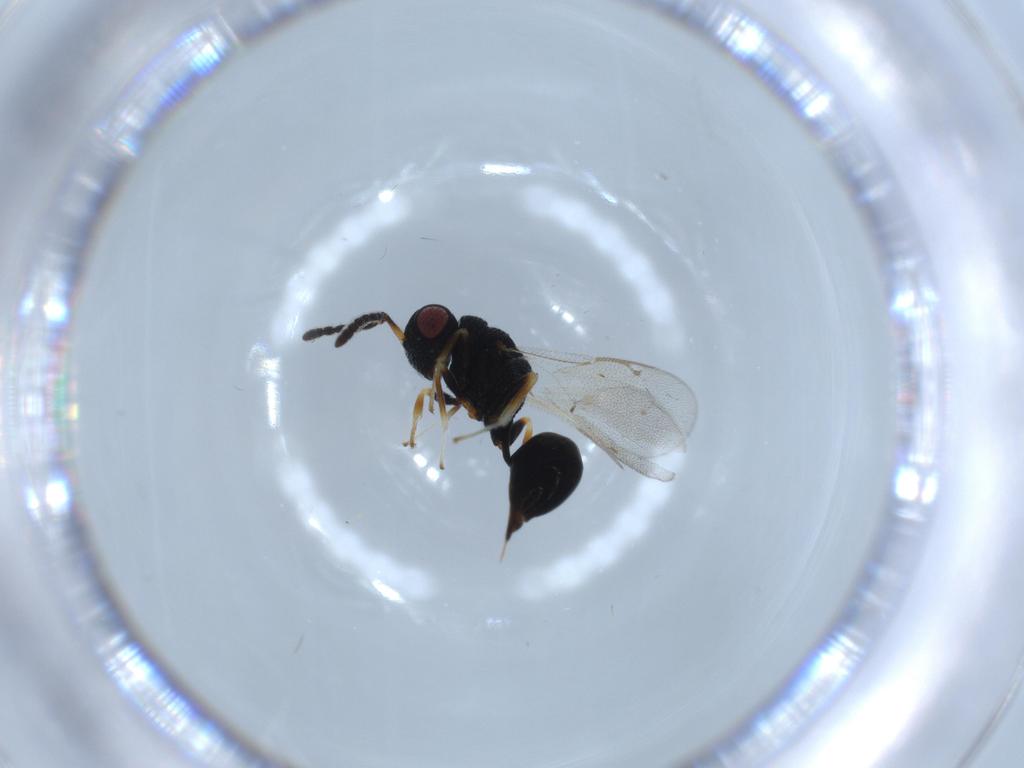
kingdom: Animalia
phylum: Arthropoda
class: Insecta
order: Hymenoptera
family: Eurytomidae
